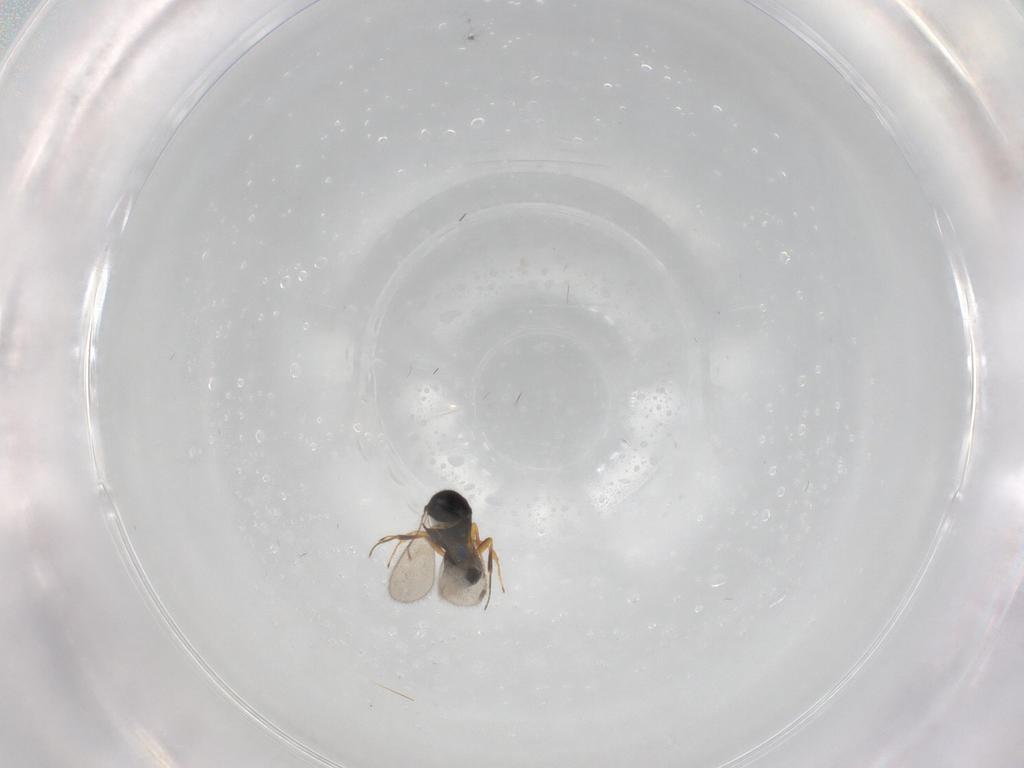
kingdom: Animalia
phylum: Arthropoda
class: Insecta
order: Hymenoptera
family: Scelionidae
